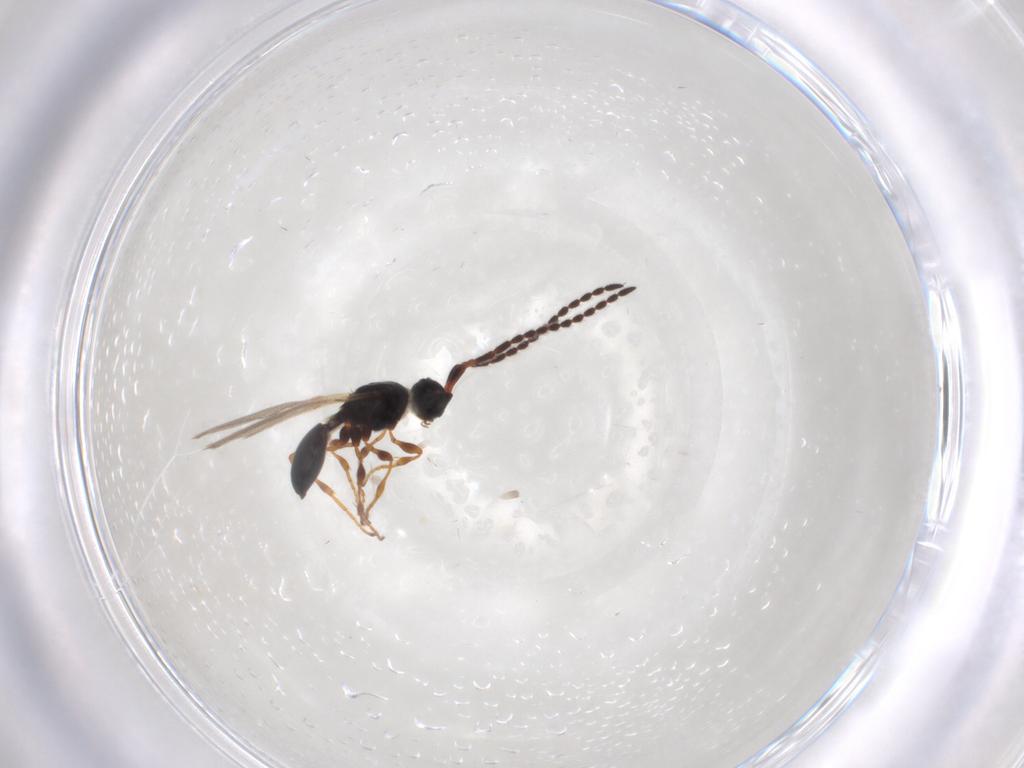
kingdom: Animalia
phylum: Arthropoda
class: Insecta
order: Hymenoptera
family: Diapriidae
